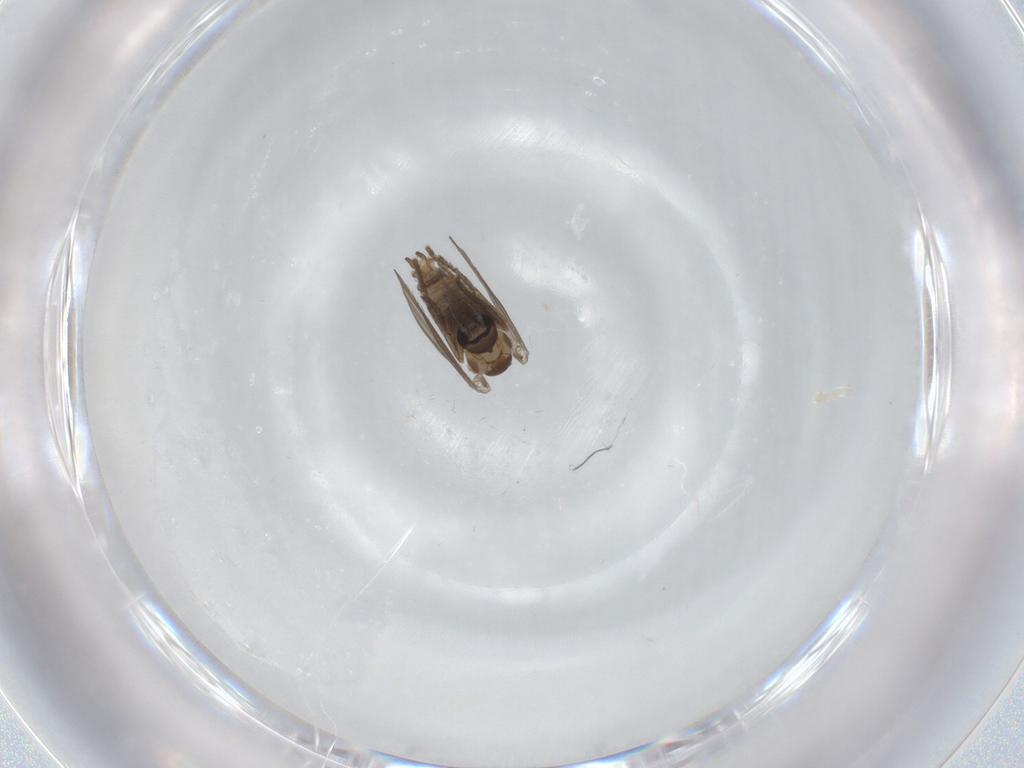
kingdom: Animalia
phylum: Arthropoda
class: Insecta
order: Diptera
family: Psychodidae
